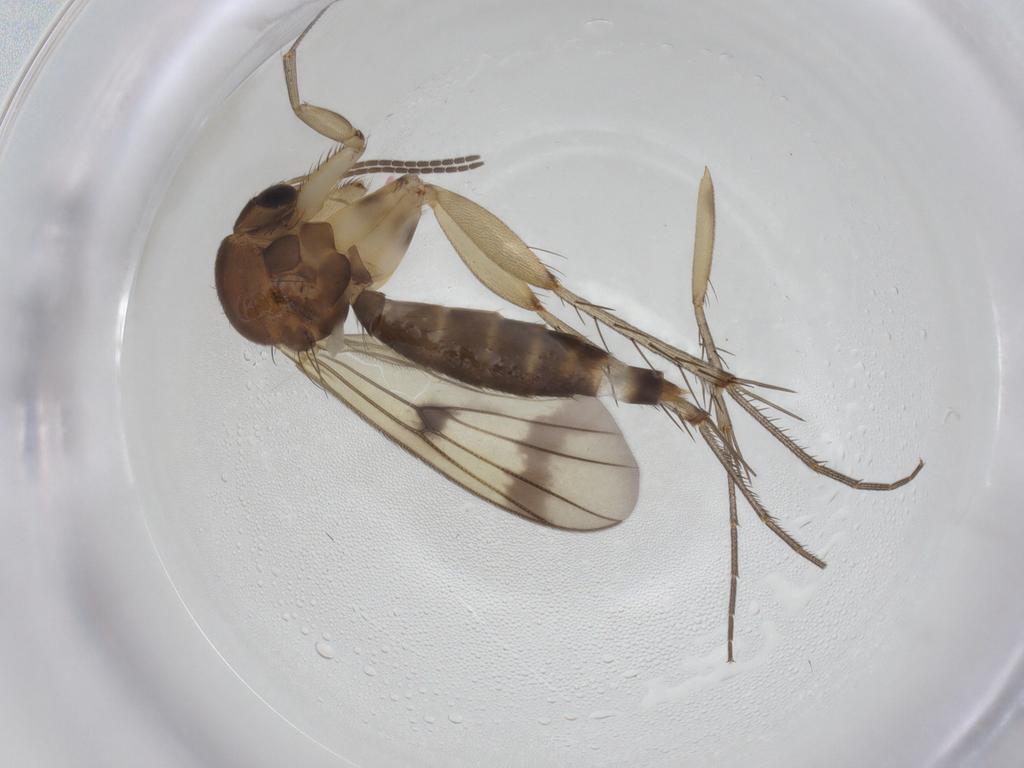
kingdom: Animalia
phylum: Arthropoda
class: Insecta
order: Diptera
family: Mycetophilidae
